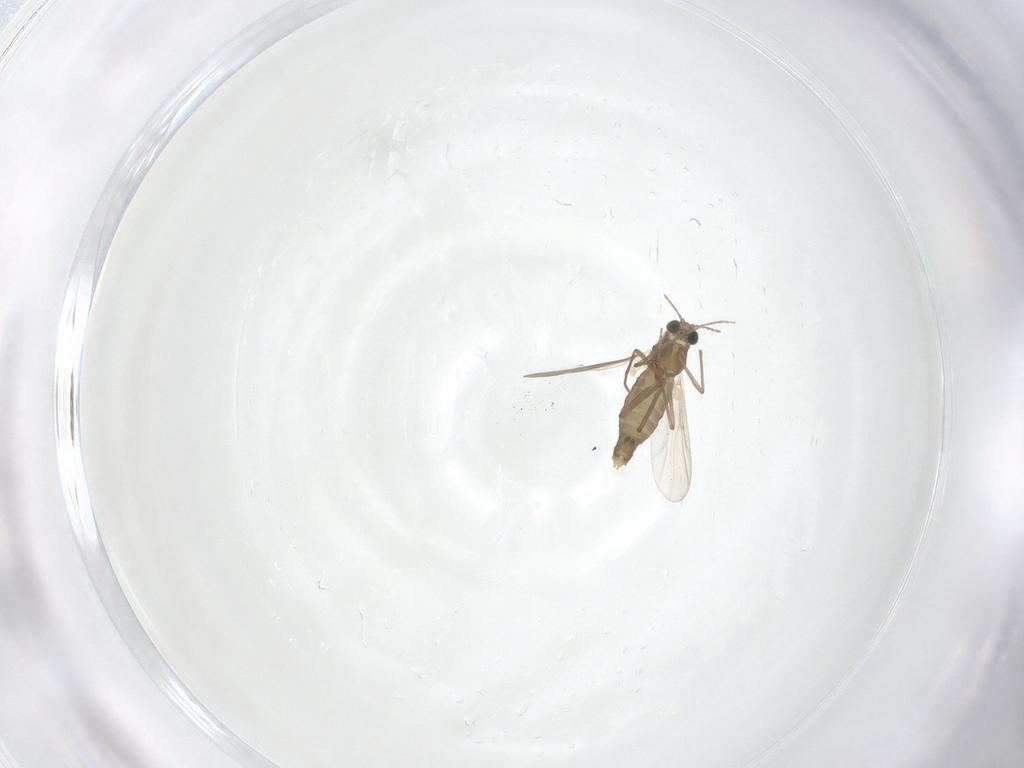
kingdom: Animalia
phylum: Arthropoda
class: Insecta
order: Diptera
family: Chironomidae
